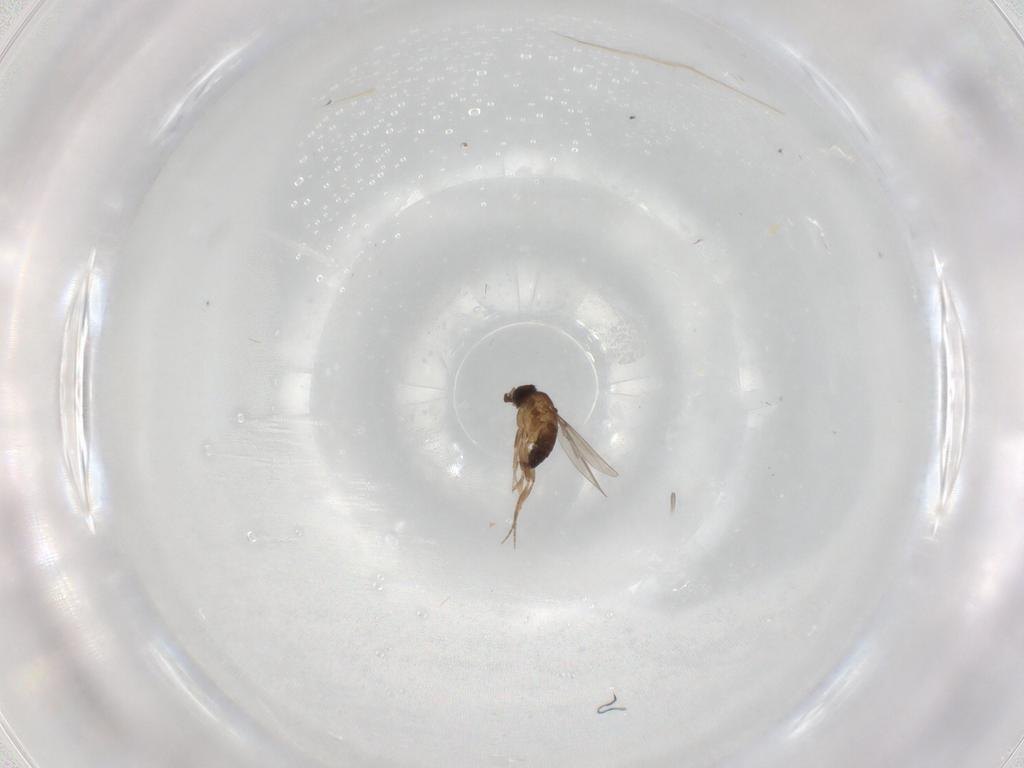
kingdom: Animalia
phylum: Arthropoda
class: Insecta
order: Diptera
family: Phoridae
